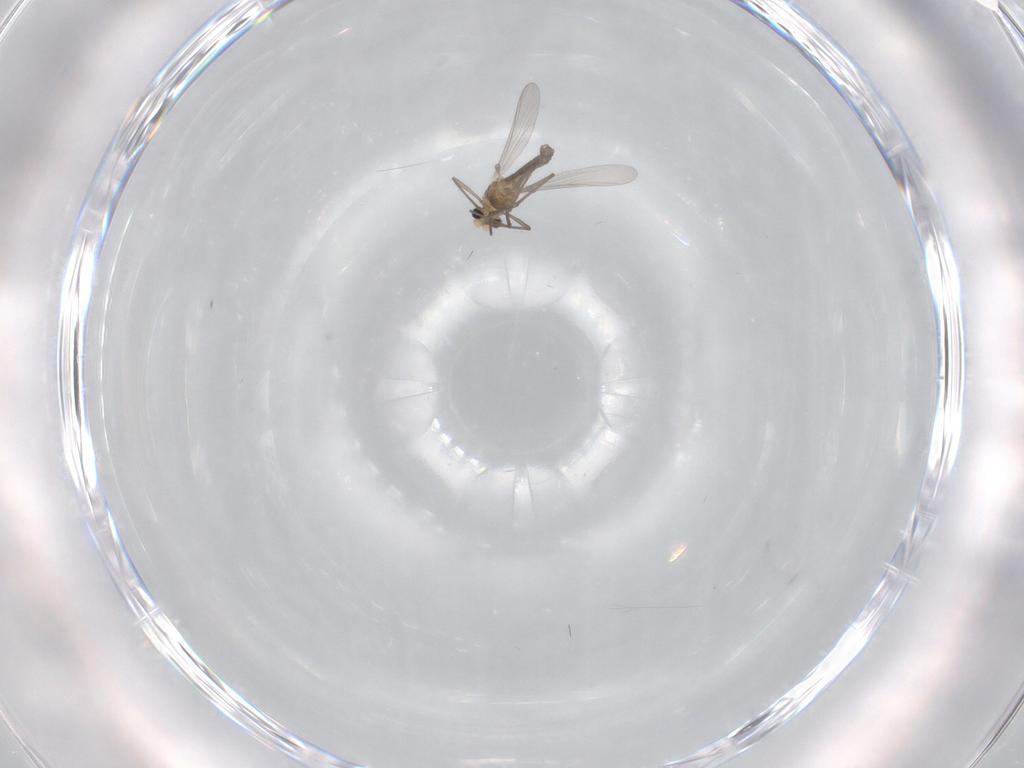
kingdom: Animalia
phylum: Arthropoda
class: Insecta
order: Diptera
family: Chironomidae
